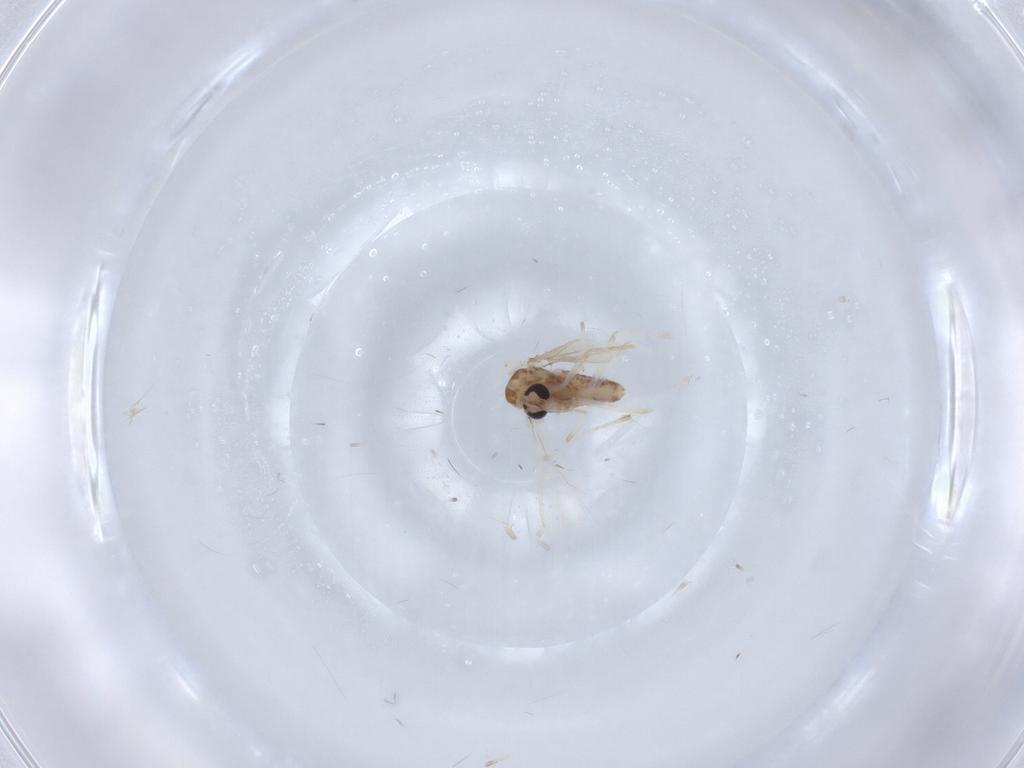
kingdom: Animalia
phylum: Arthropoda
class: Insecta
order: Diptera
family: Chironomidae
